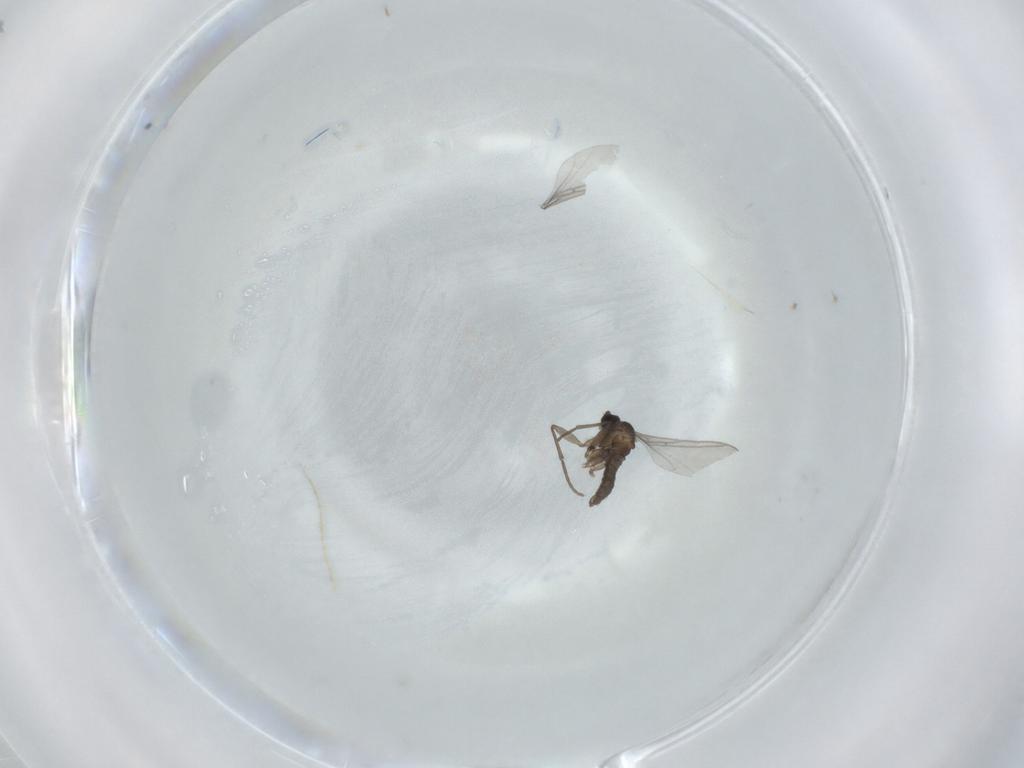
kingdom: Animalia
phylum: Arthropoda
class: Insecta
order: Diptera
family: Sciaridae
